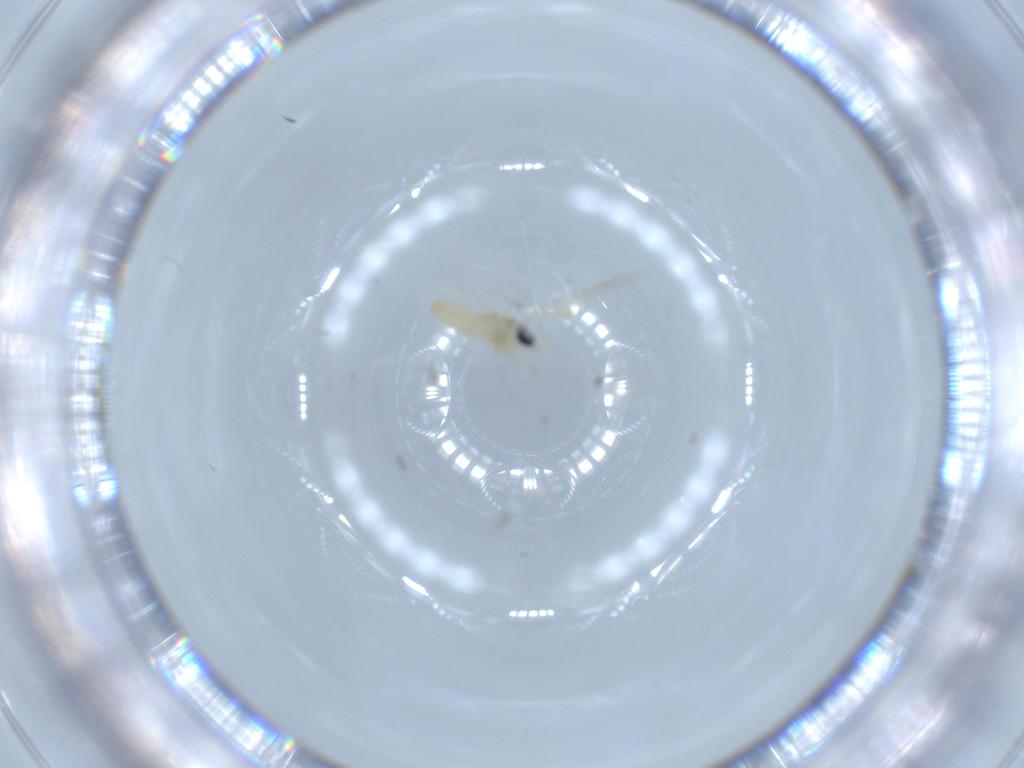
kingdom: Animalia
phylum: Arthropoda
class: Insecta
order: Diptera
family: Cecidomyiidae
